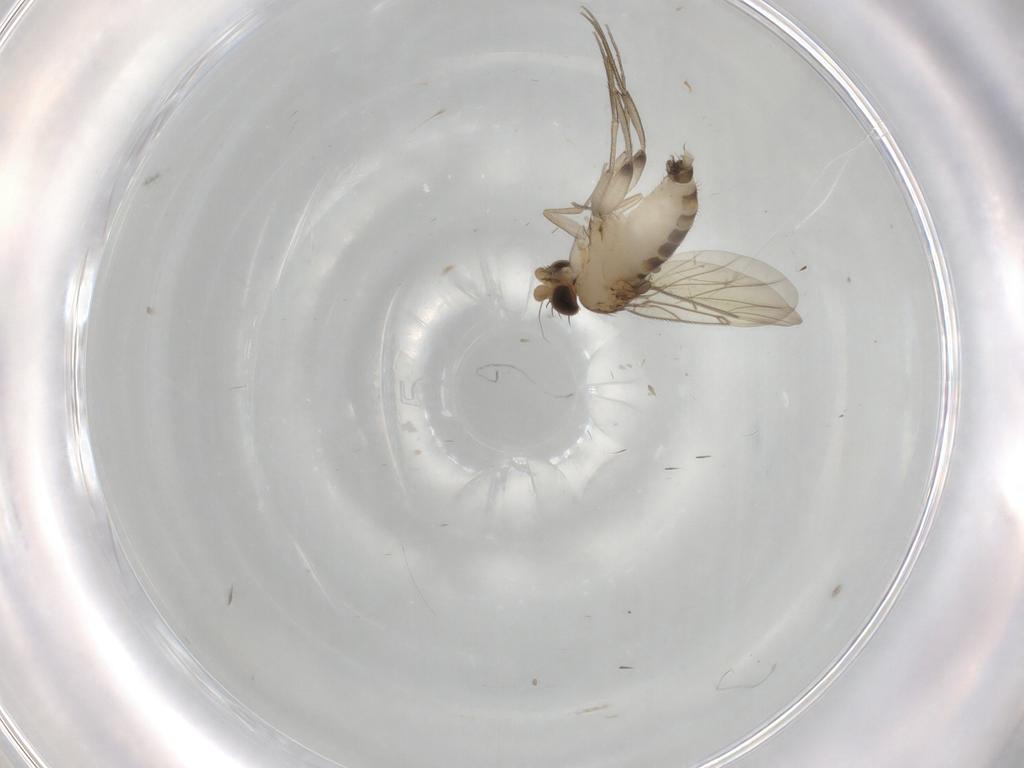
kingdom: Animalia
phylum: Arthropoda
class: Insecta
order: Diptera
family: Phoridae
